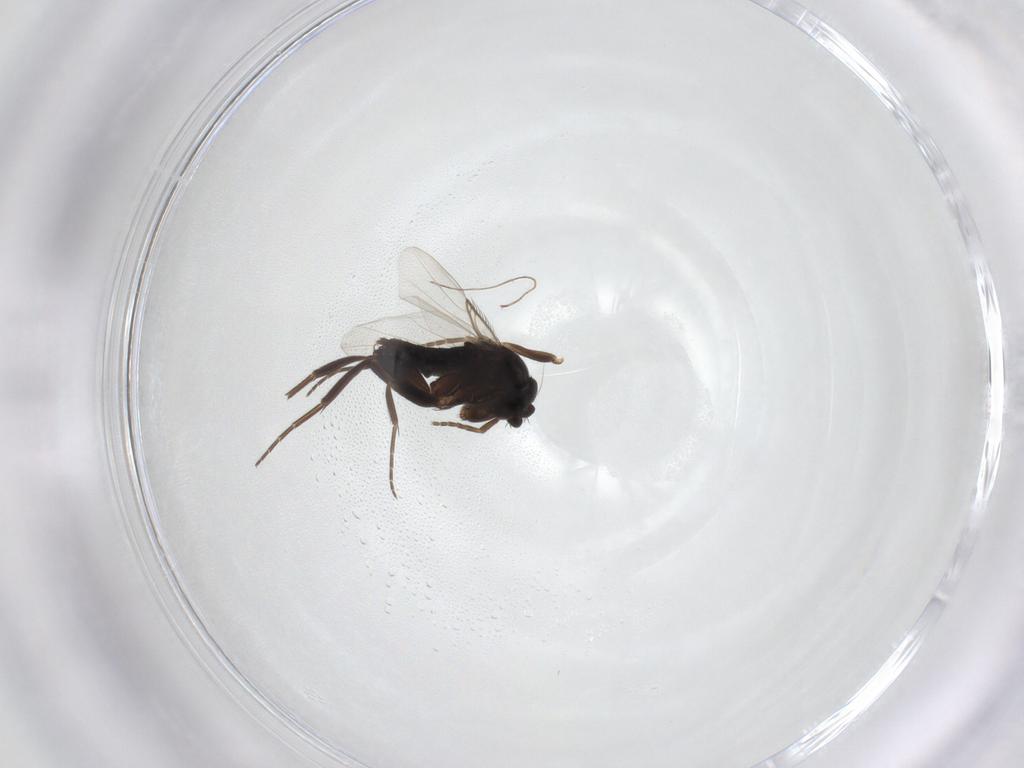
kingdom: Animalia
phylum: Arthropoda
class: Insecta
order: Diptera
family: Phoridae
